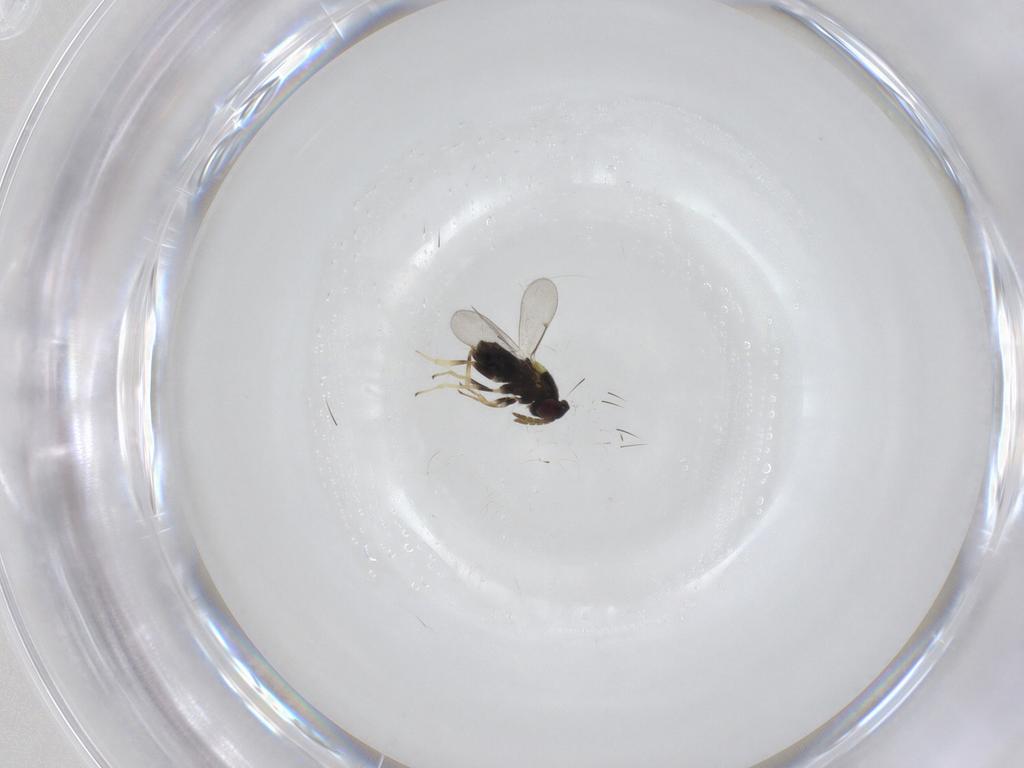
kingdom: Animalia
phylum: Arthropoda
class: Insecta
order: Hymenoptera
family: Aphelinidae
